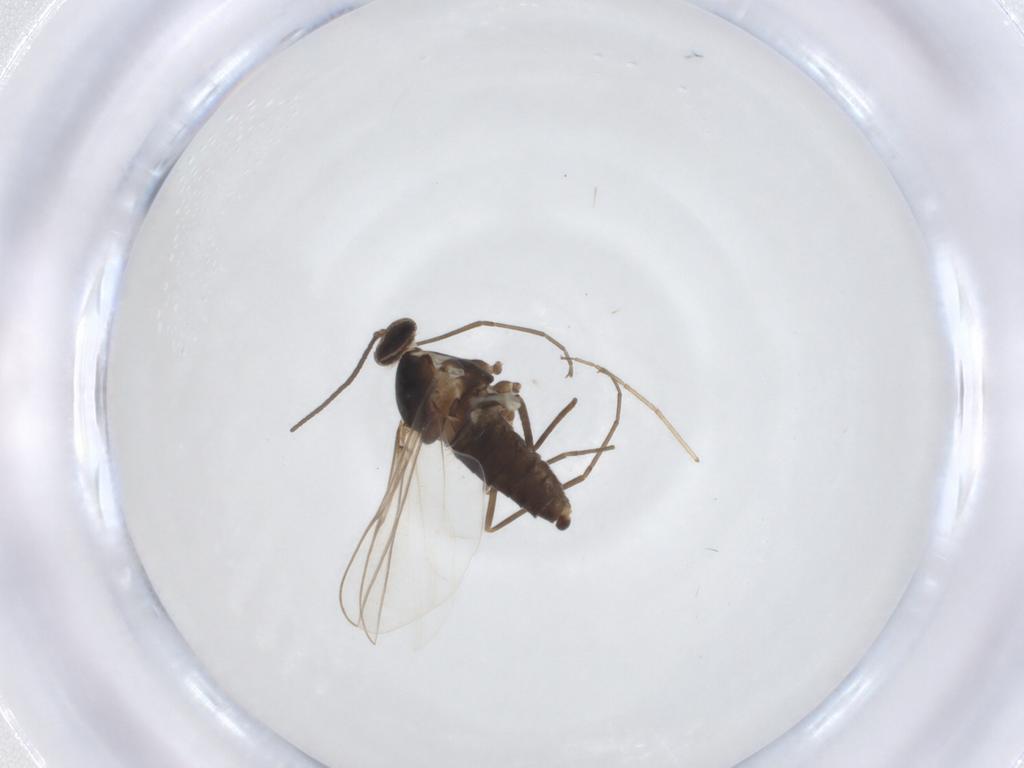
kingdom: Animalia
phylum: Arthropoda
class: Insecta
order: Diptera
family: Cecidomyiidae
